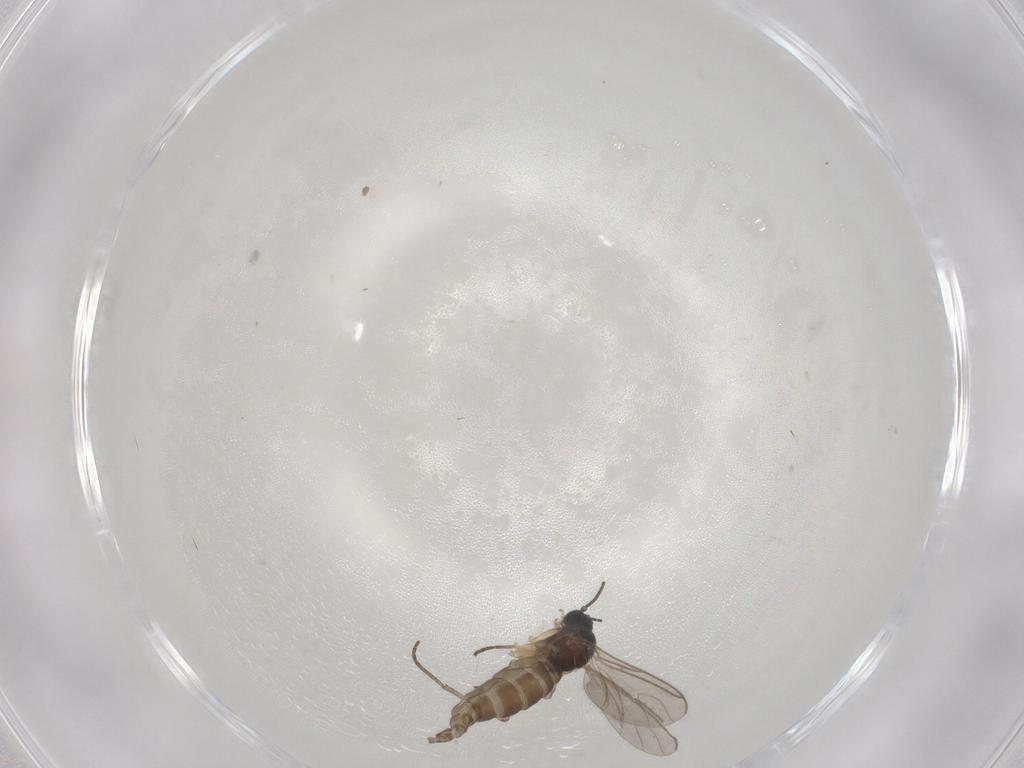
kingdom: Animalia
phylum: Arthropoda
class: Insecta
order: Diptera
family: Sciaridae
